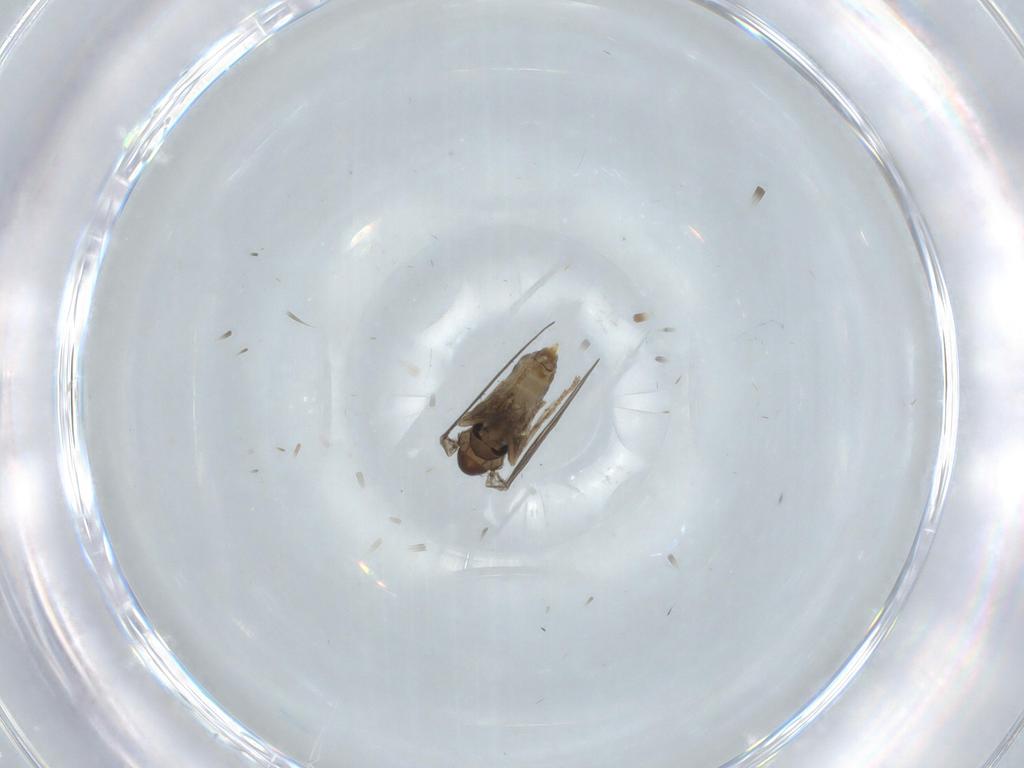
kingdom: Animalia
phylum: Arthropoda
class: Insecta
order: Diptera
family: Psychodidae
